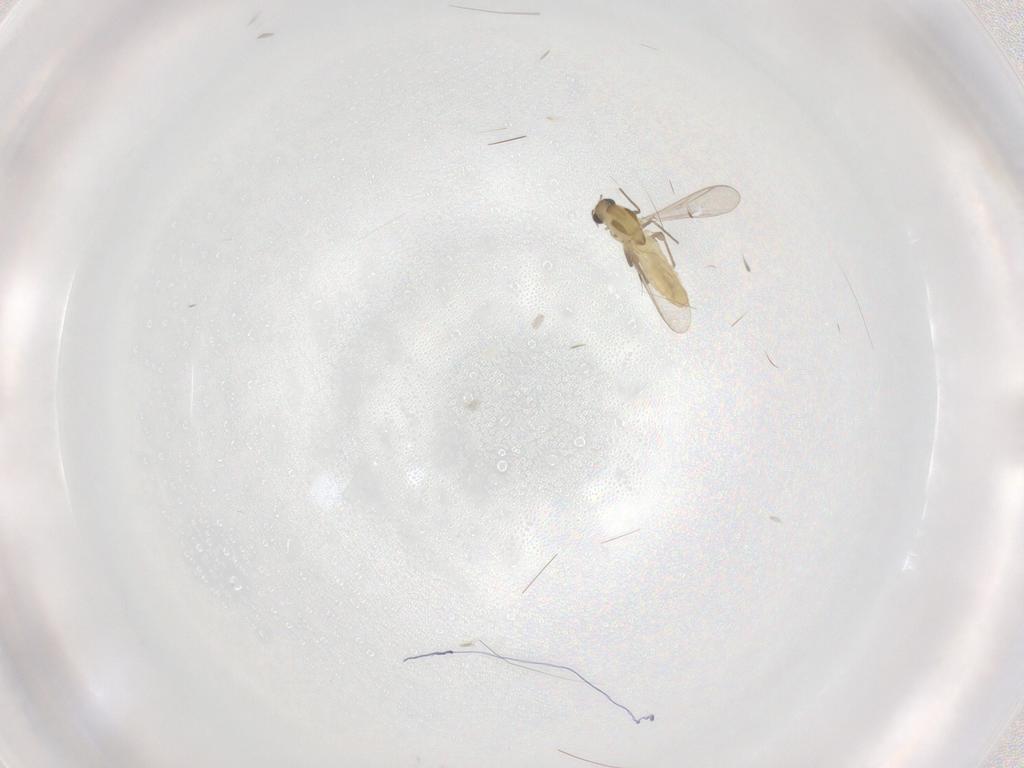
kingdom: Animalia
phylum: Arthropoda
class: Insecta
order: Diptera
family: Chironomidae
